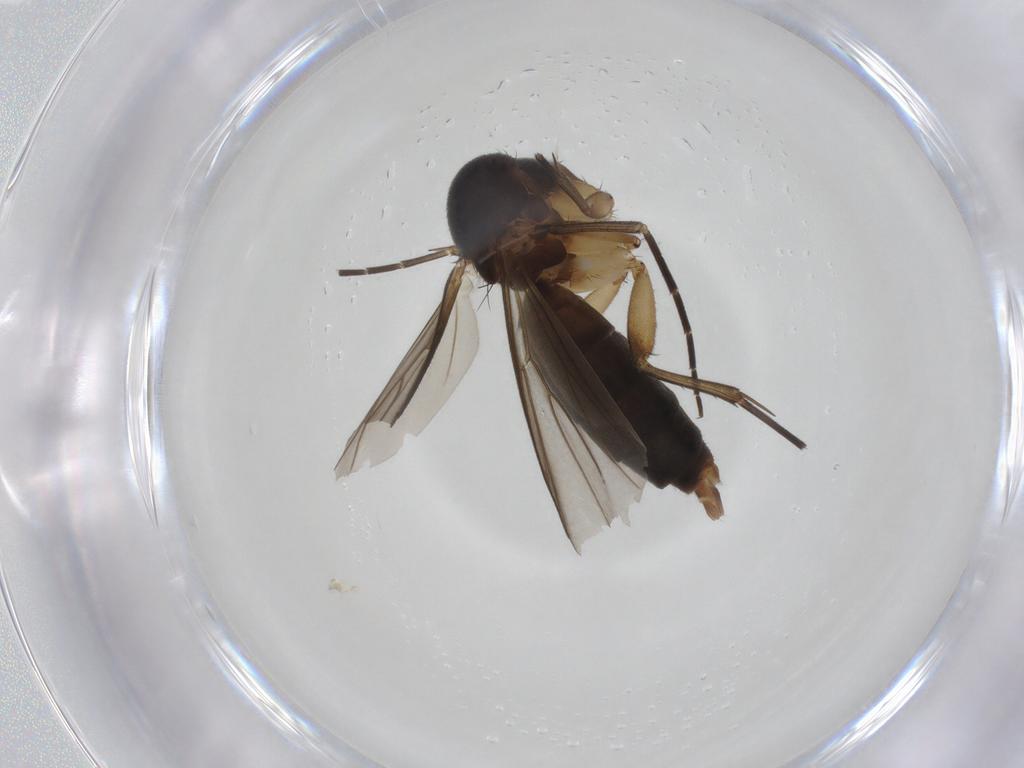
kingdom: Animalia
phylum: Arthropoda
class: Insecta
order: Diptera
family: Mycetophilidae
